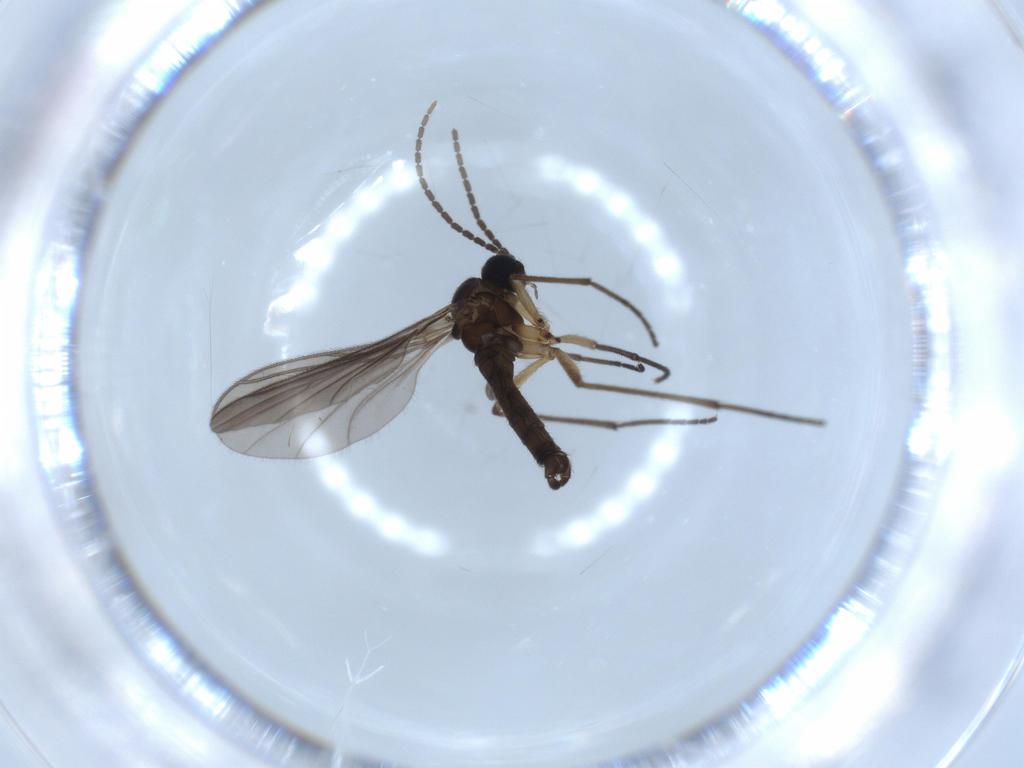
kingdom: Animalia
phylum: Arthropoda
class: Insecta
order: Diptera
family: Sciaridae
